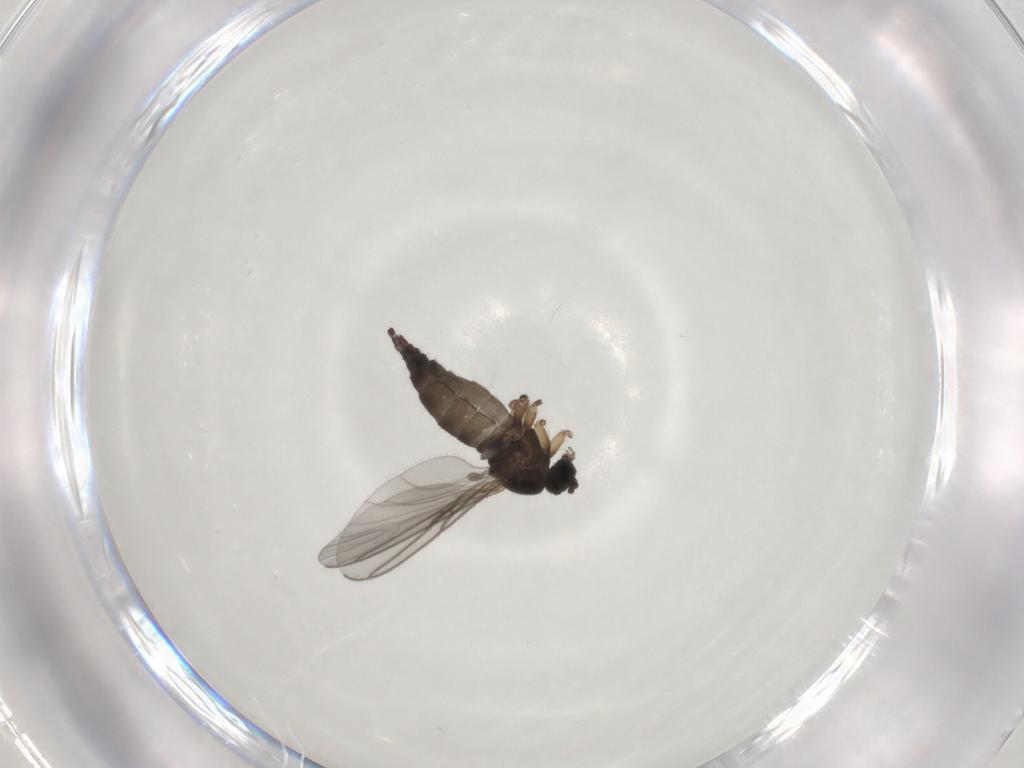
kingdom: Animalia
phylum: Arthropoda
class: Insecta
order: Diptera
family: Sciaridae
